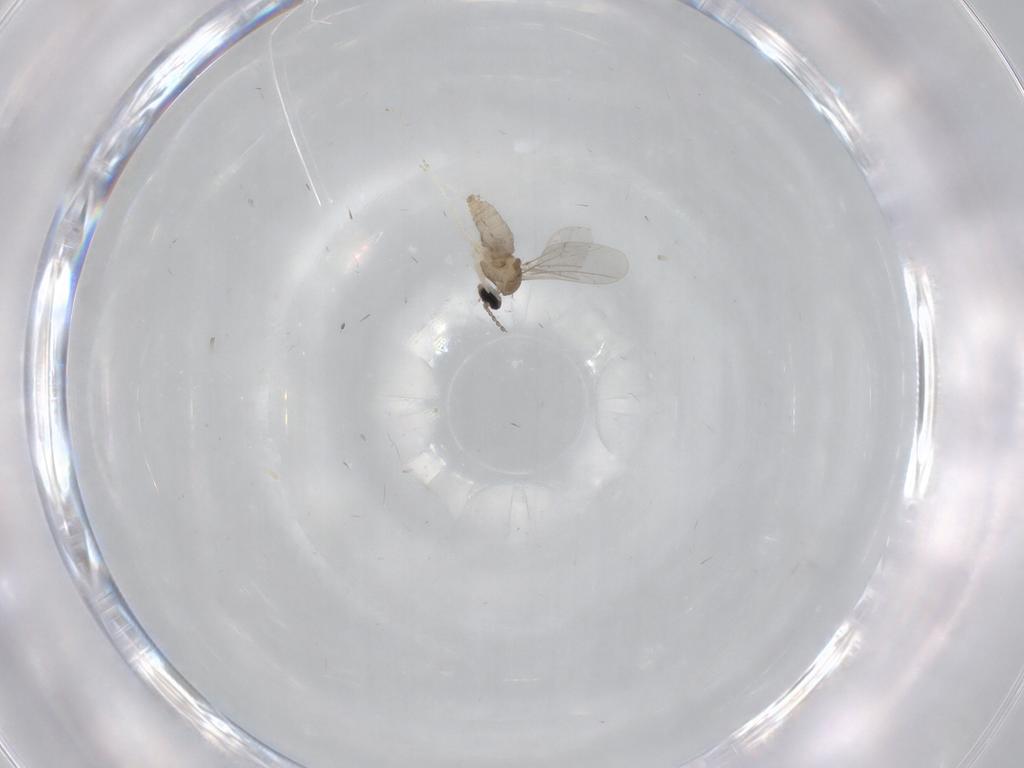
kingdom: Animalia
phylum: Arthropoda
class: Insecta
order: Diptera
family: Cecidomyiidae
